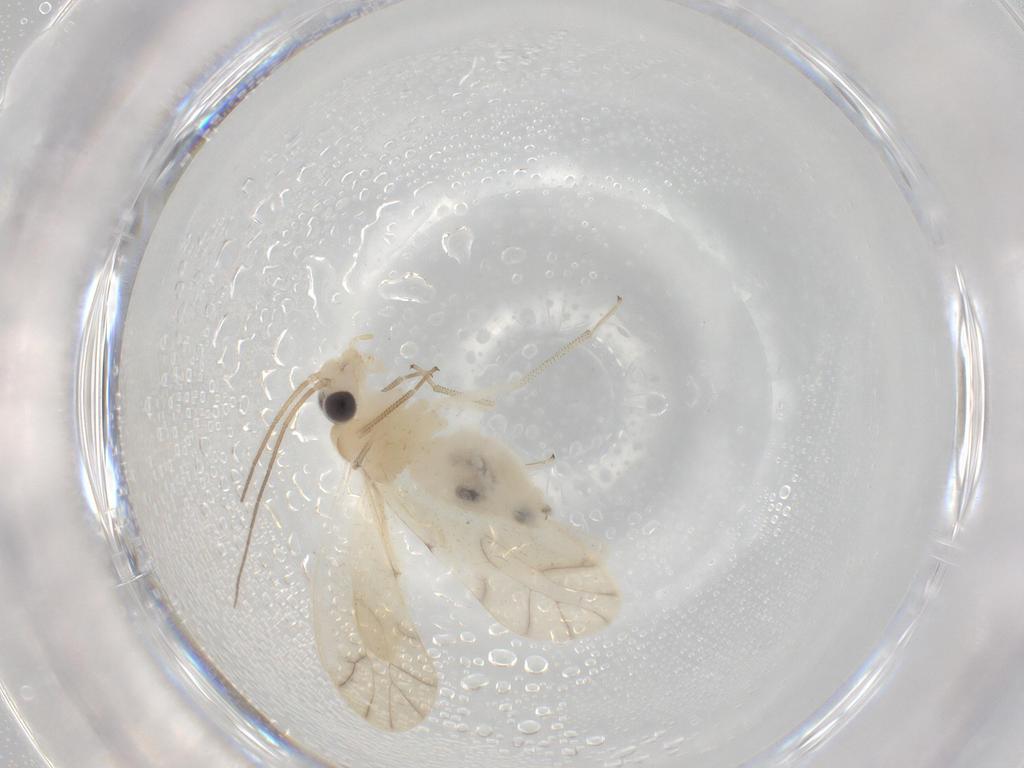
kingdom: Animalia
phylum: Arthropoda
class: Insecta
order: Psocodea
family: Caeciliusidae
